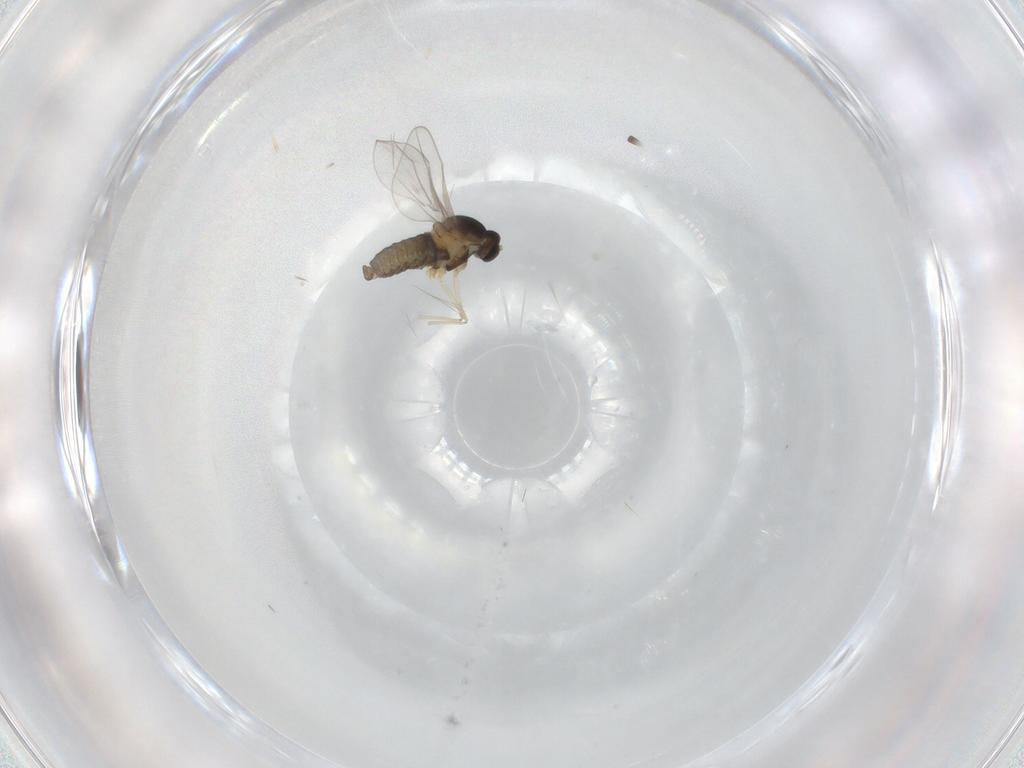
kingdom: Animalia
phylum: Arthropoda
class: Insecta
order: Diptera
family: Cecidomyiidae
